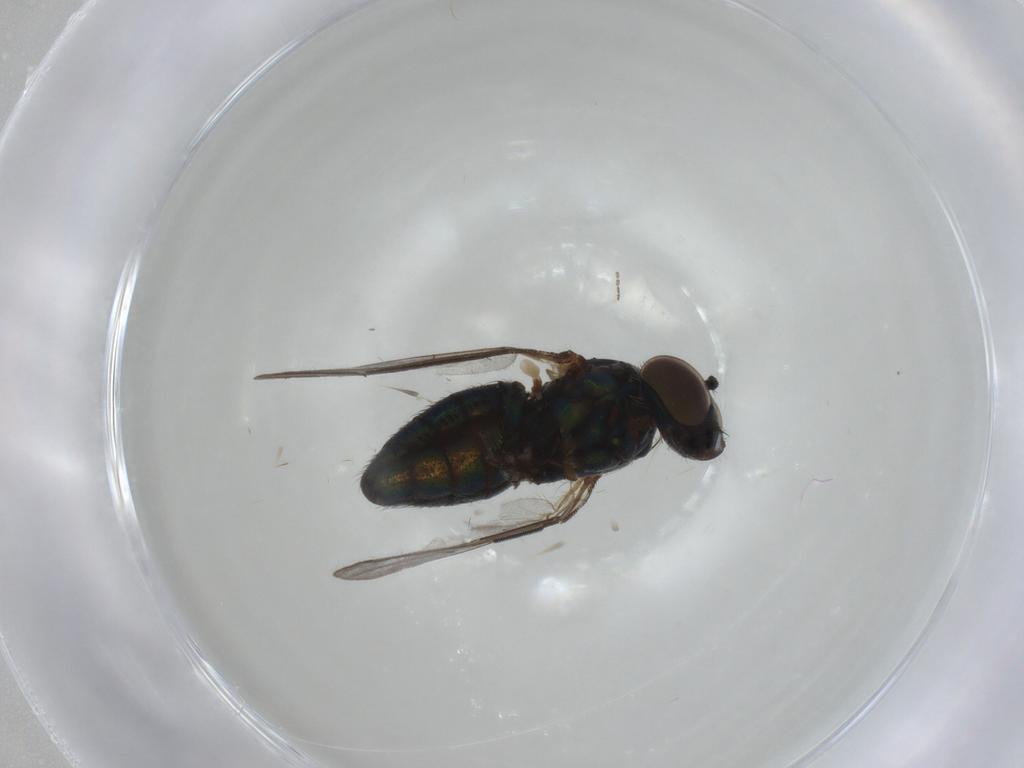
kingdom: Animalia
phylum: Arthropoda
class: Insecta
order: Diptera
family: Dolichopodidae
